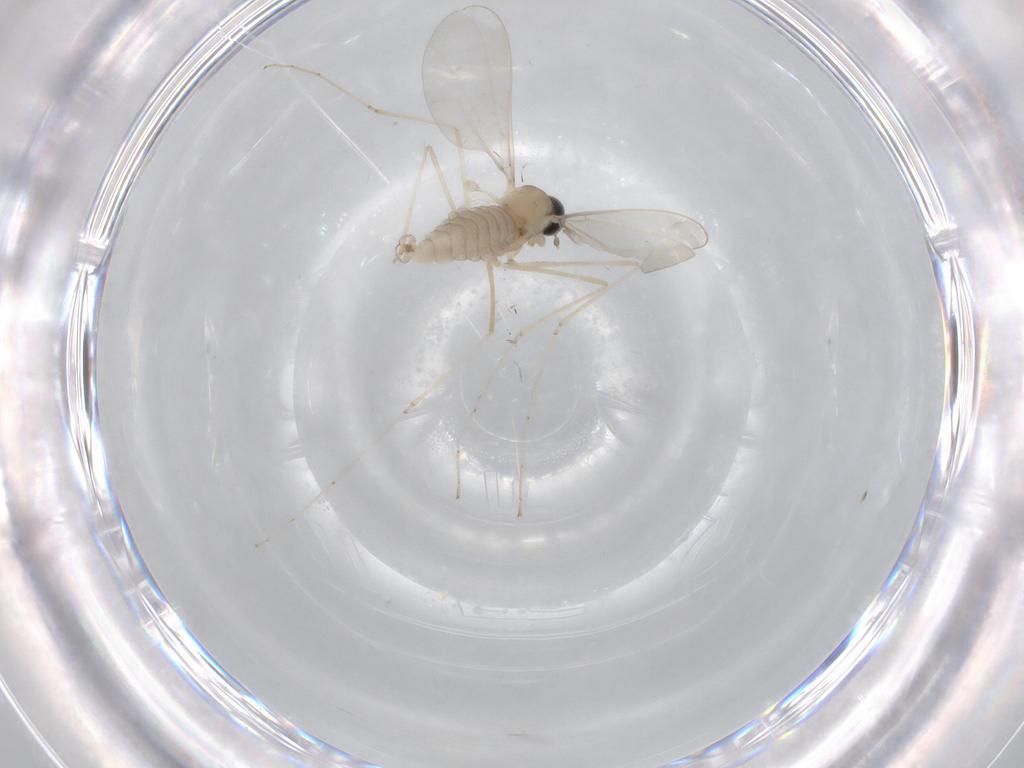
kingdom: Animalia
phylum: Arthropoda
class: Insecta
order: Diptera
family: Cecidomyiidae
